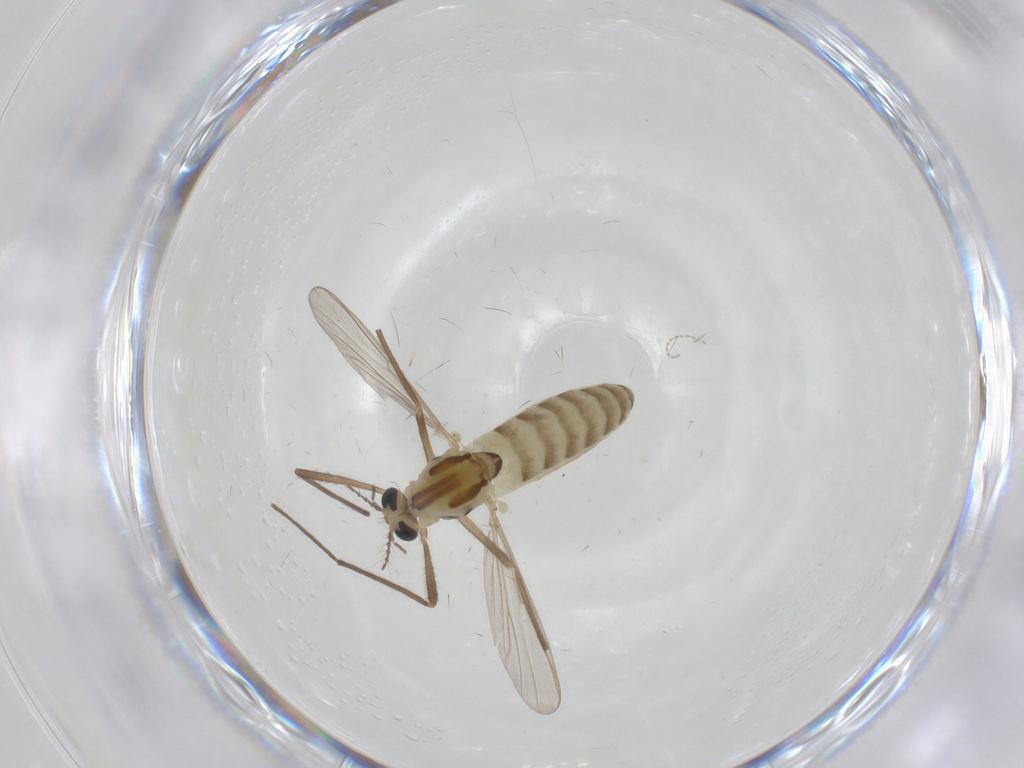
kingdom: Animalia
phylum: Arthropoda
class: Insecta
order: Diptera
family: Chironomidae
